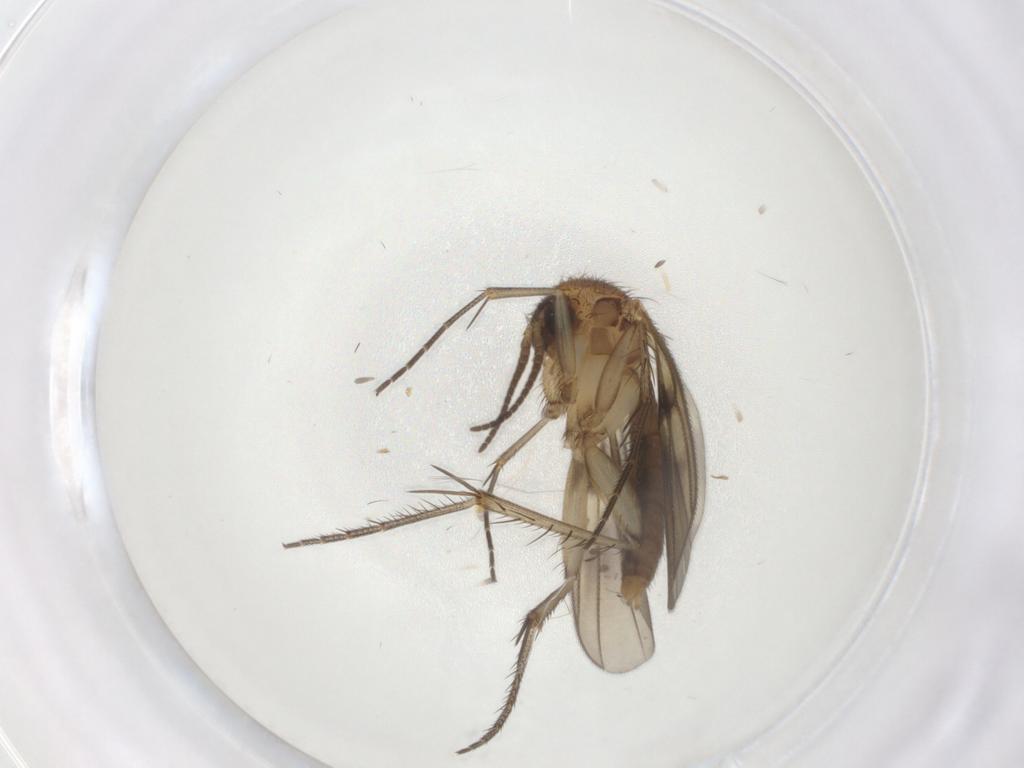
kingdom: Animalia
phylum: Arthropoda
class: Insecta
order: Diptera
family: Mycetophilidae
